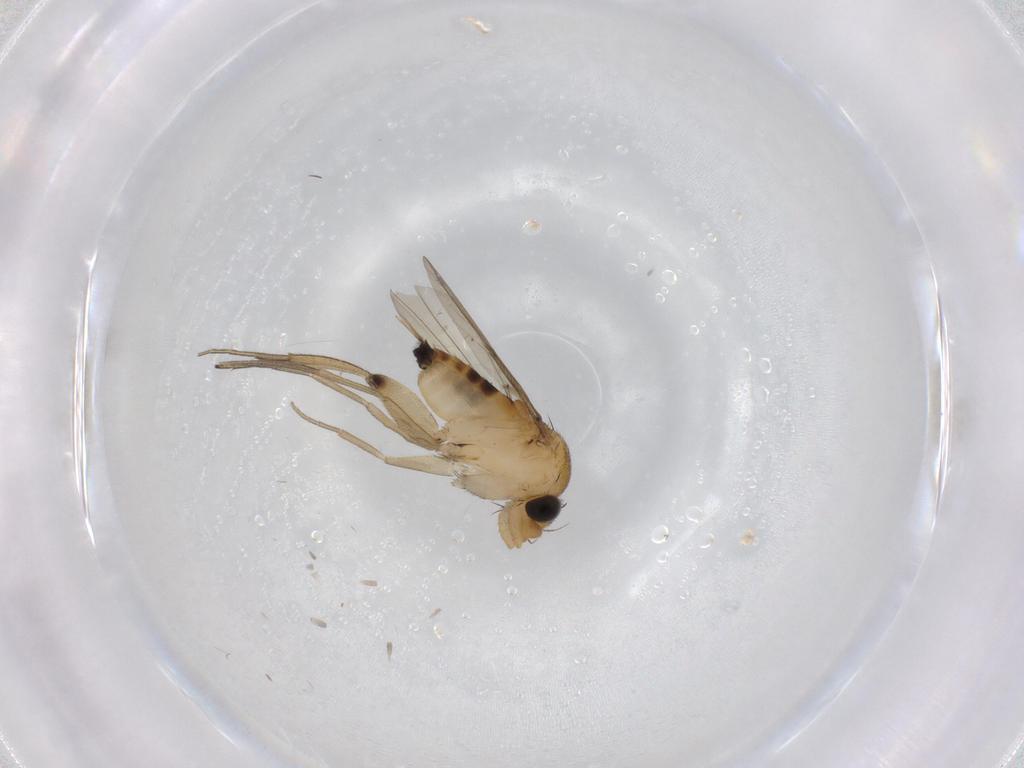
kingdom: Animalia
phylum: Arthropoda
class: Insecta
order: Diptera
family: Phoridae
